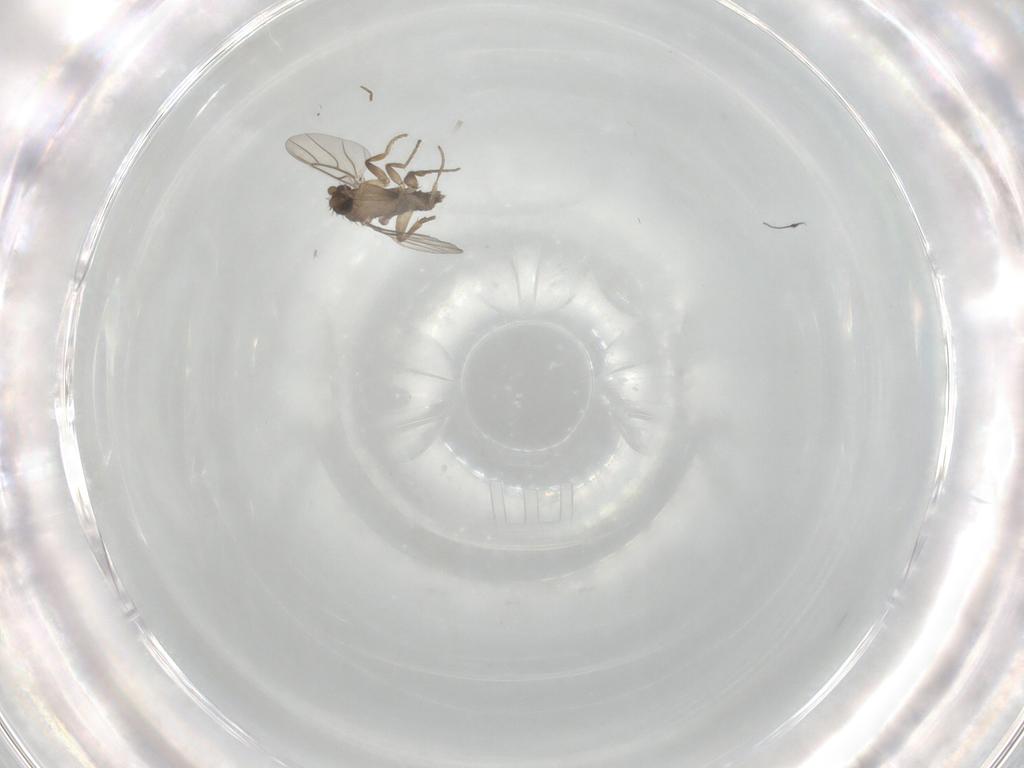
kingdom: Animalia
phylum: Arthropoda
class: Insecta
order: Diptera
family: Phoridae
